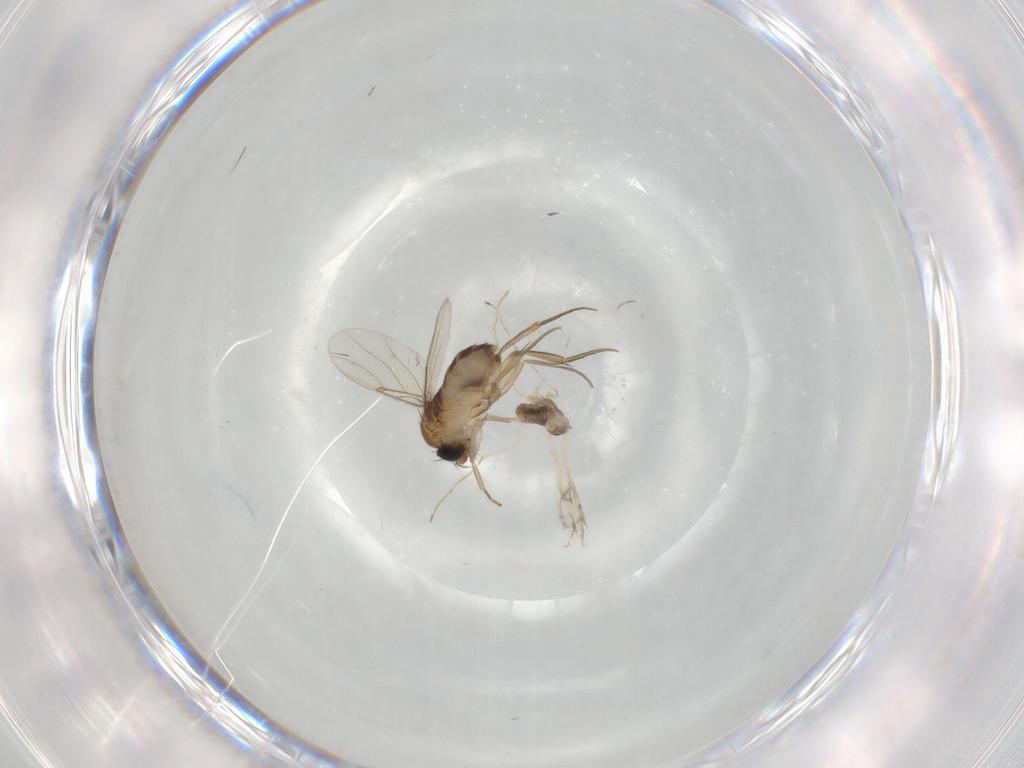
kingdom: Animalia
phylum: Arthropoda
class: Insecta
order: Diptera
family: Cecidomyiidae
